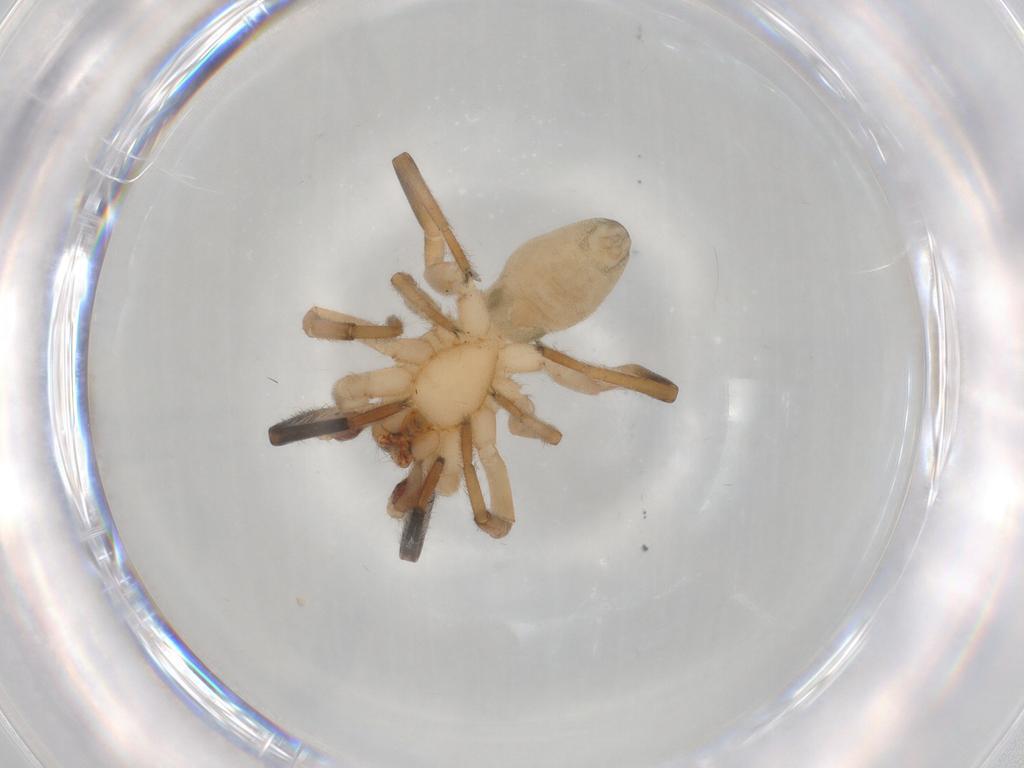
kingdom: Animalia
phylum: Arthropoda
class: Arachnida
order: Araneae
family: Trachelidae
